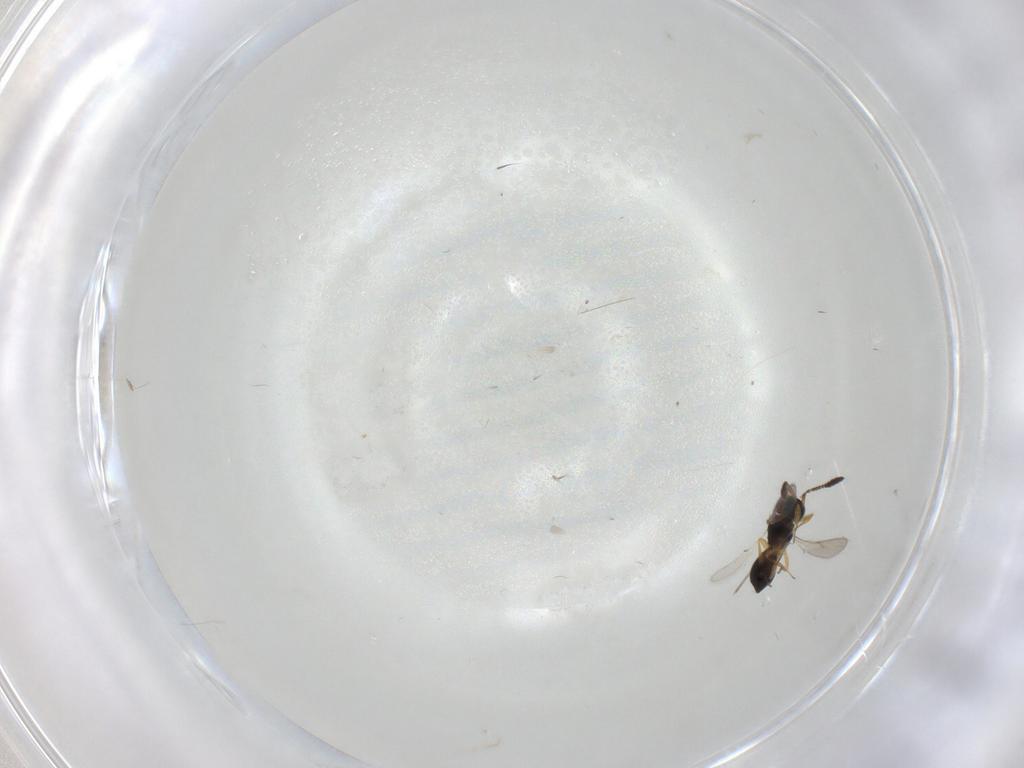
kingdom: Animalia
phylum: Arthropoda
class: Insecta
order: Hymenoptera
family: Scelionidae
